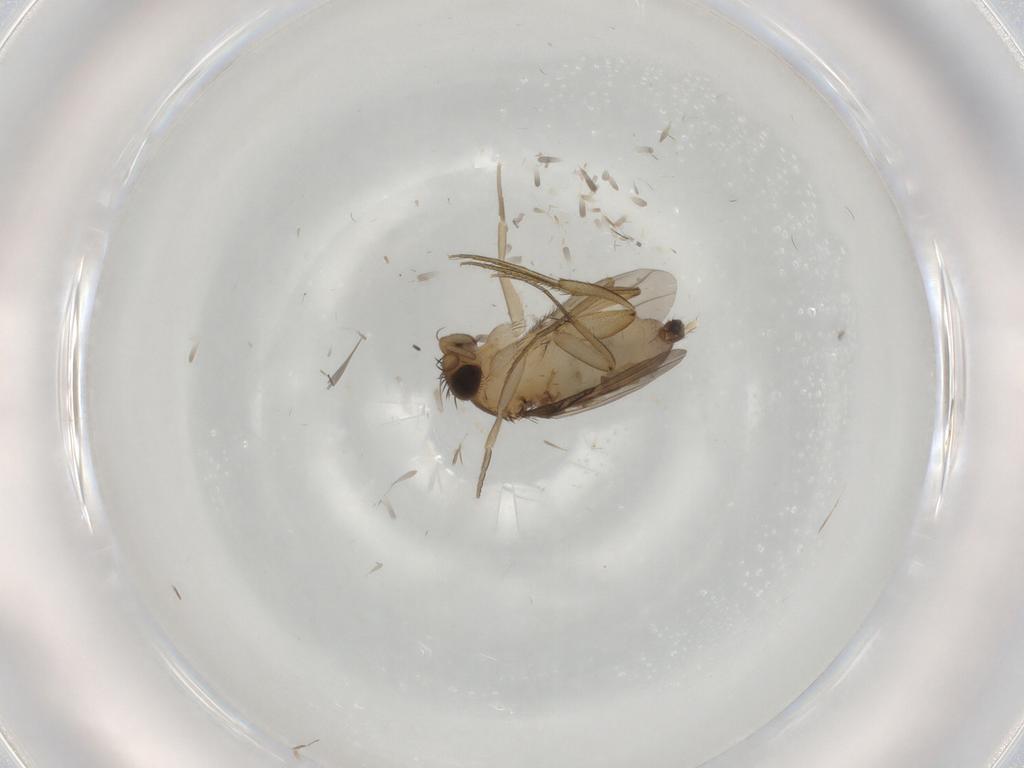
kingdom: Animalia
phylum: Arthropoda
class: Insecta
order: Diptera
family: Phoridae
